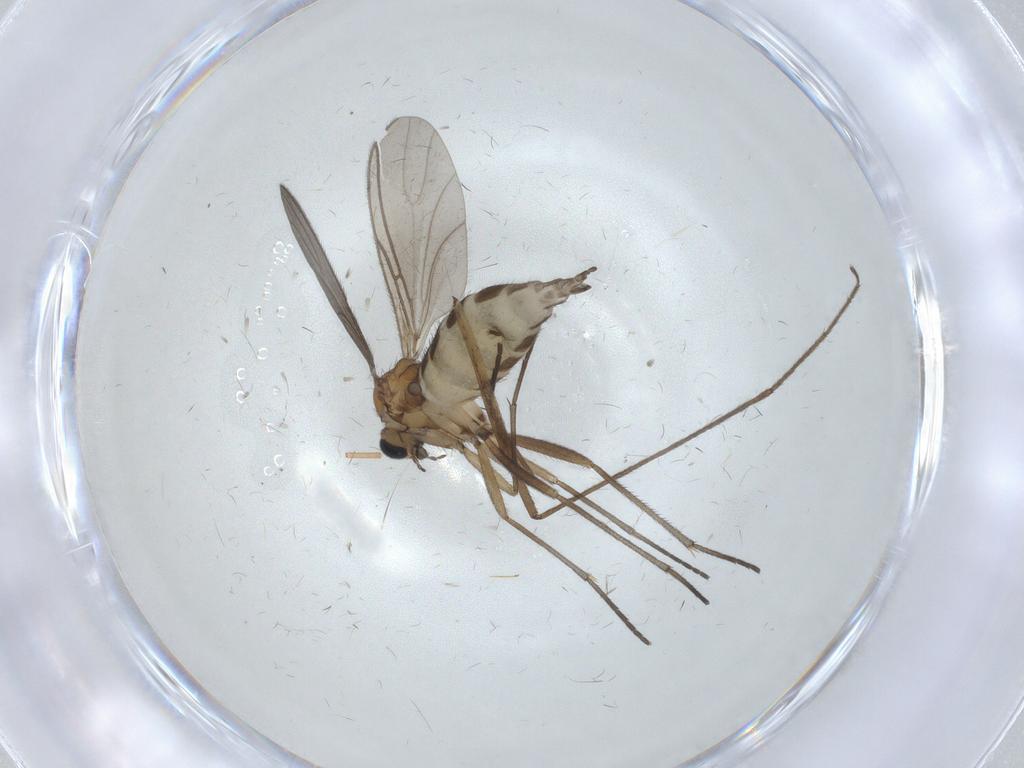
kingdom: Animalia
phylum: Arthropoda
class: Insecta
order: Diptera
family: Sciaridae
